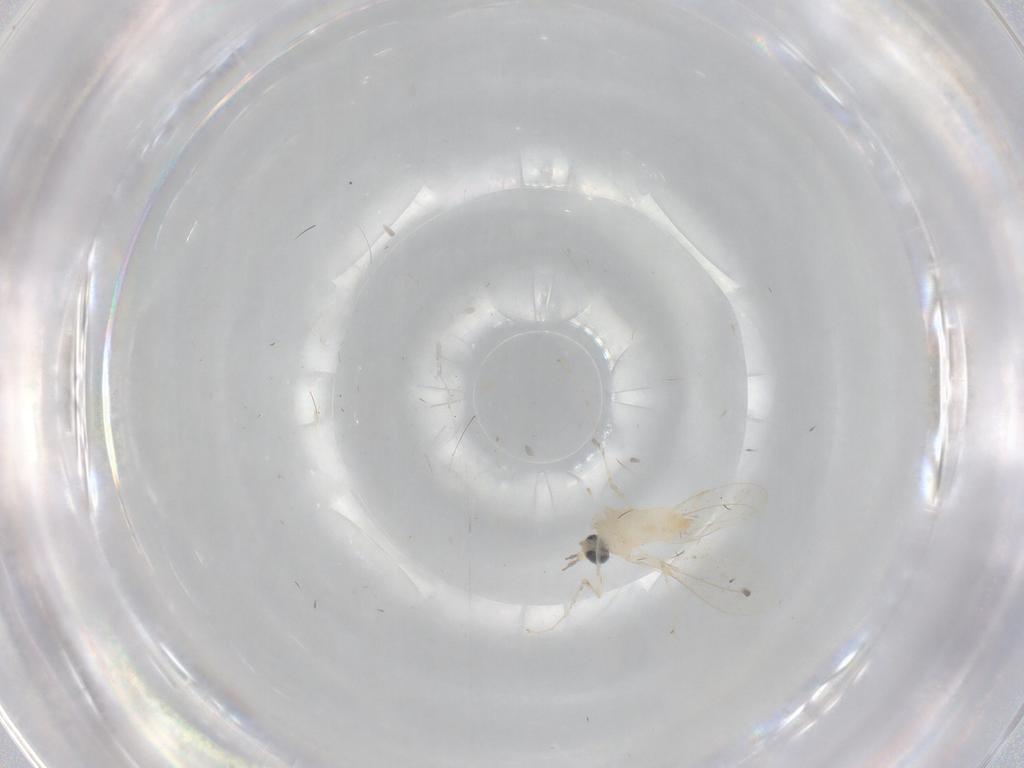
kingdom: Animalia
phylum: Arthropoda
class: Insecta
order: Diptera
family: Cecidomyiidae
